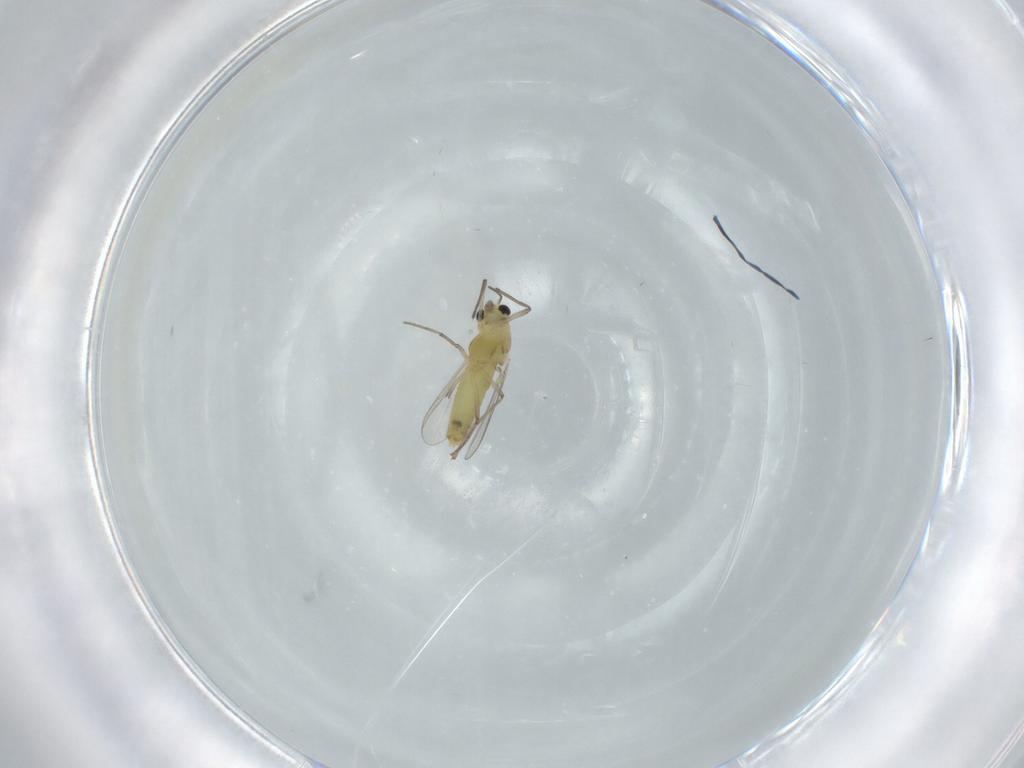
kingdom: Animalia
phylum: Arthropoda
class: Insecta
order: Diptera
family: Chironomidae
